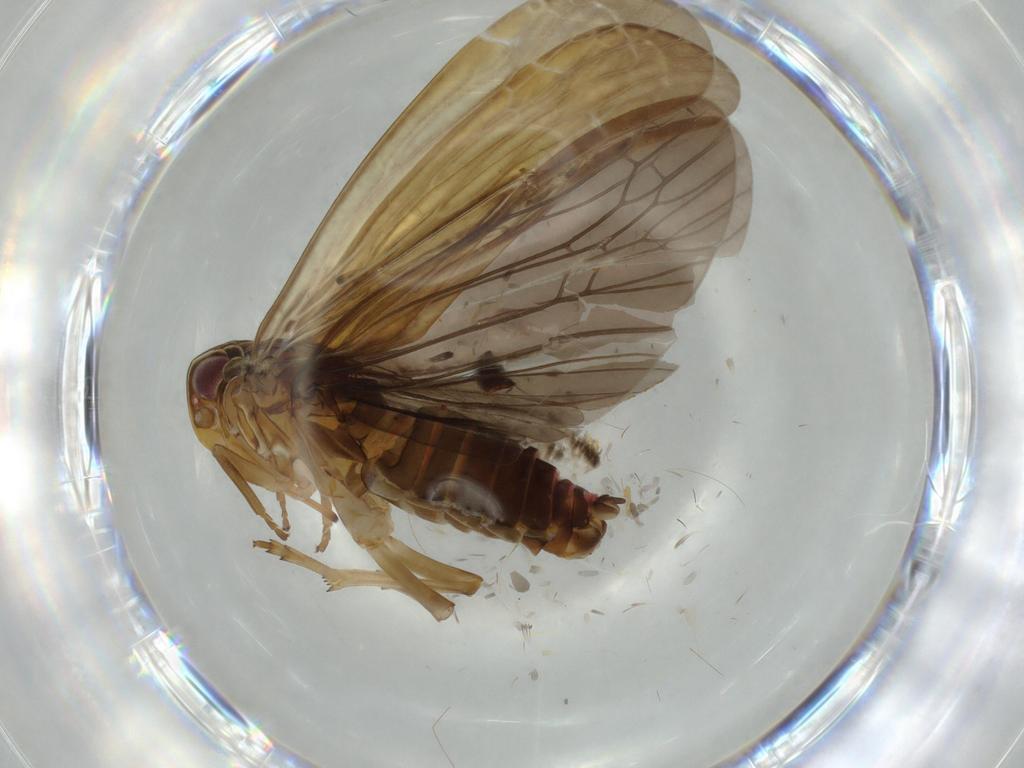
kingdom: Animalia
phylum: Arthropoda
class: Insecta
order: Hemiptera
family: Achilidae
